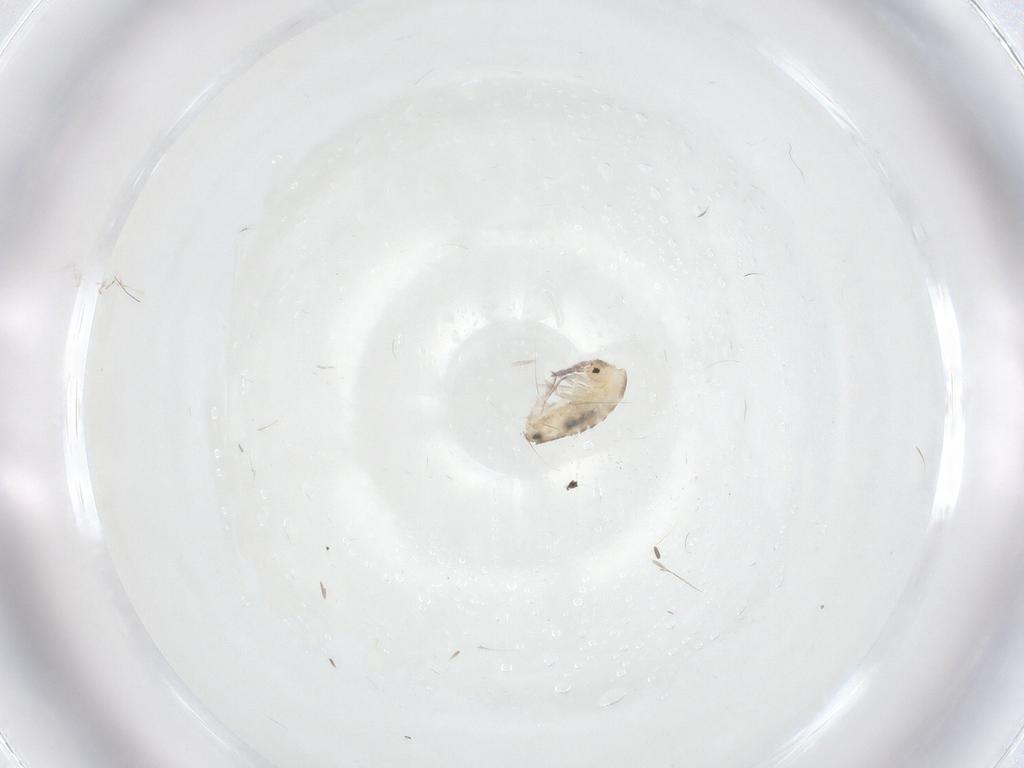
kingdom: Animalia
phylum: Arthropoda
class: Collembola
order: Entomobryomorpha
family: Entomobryidae
